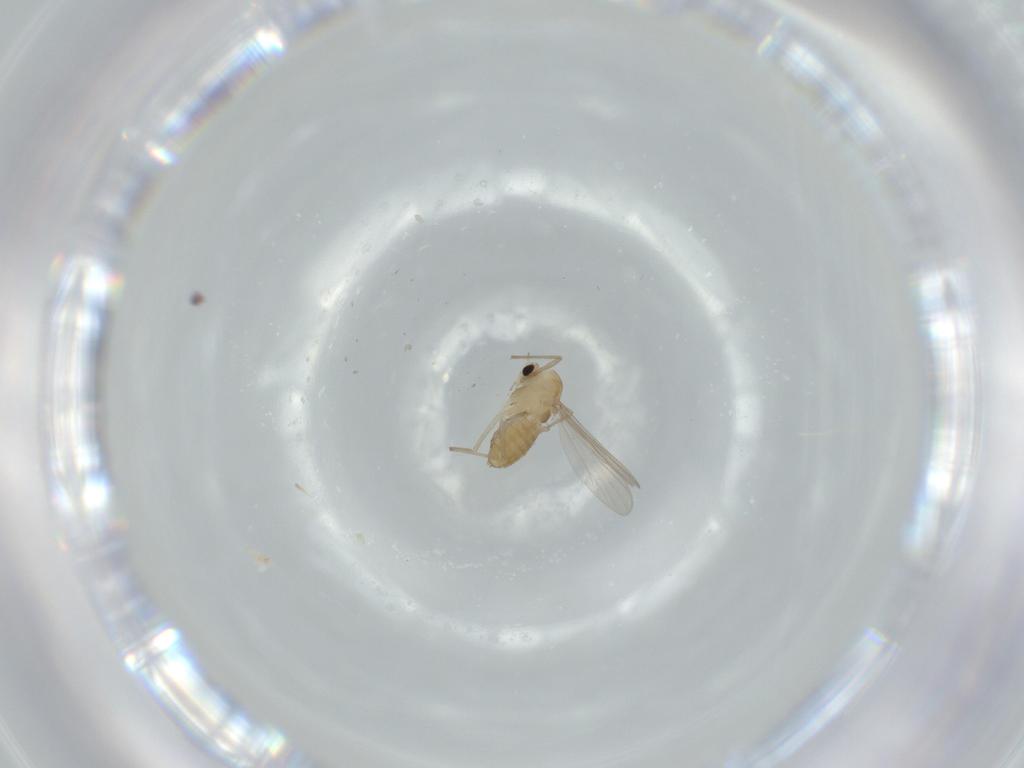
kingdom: Animalia
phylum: Arthropoda
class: Insecta
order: Diptera
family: Chironomidae
